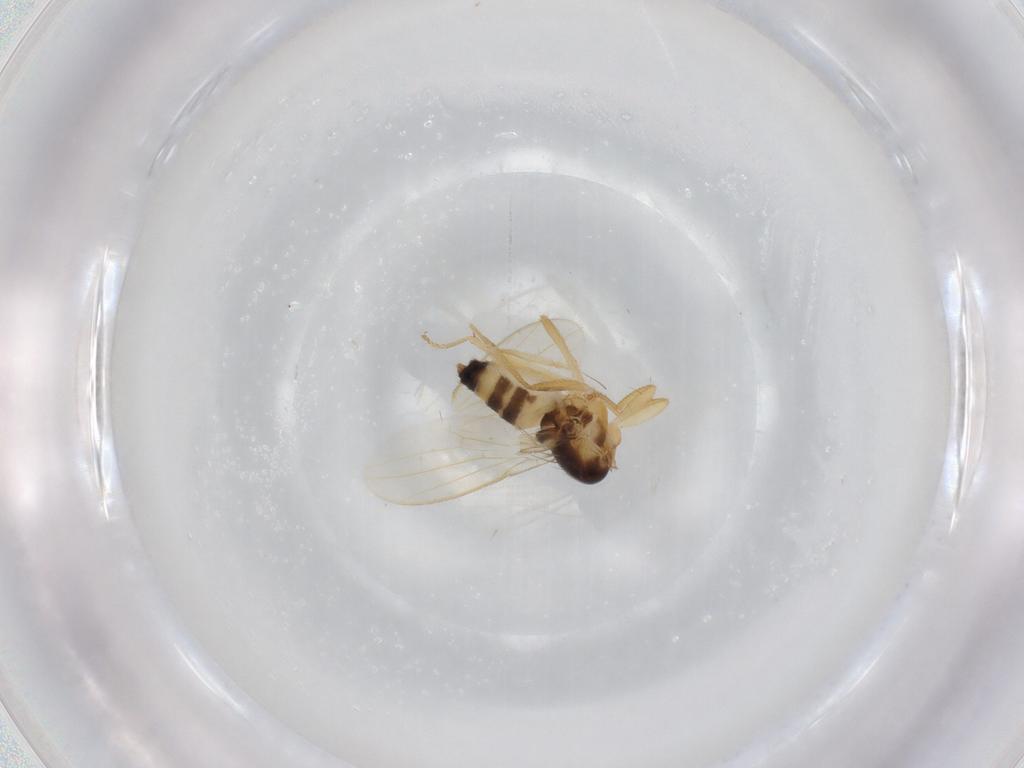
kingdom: Animalia
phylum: Arthropoda
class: Insecta
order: Diptera
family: Periscelididae
